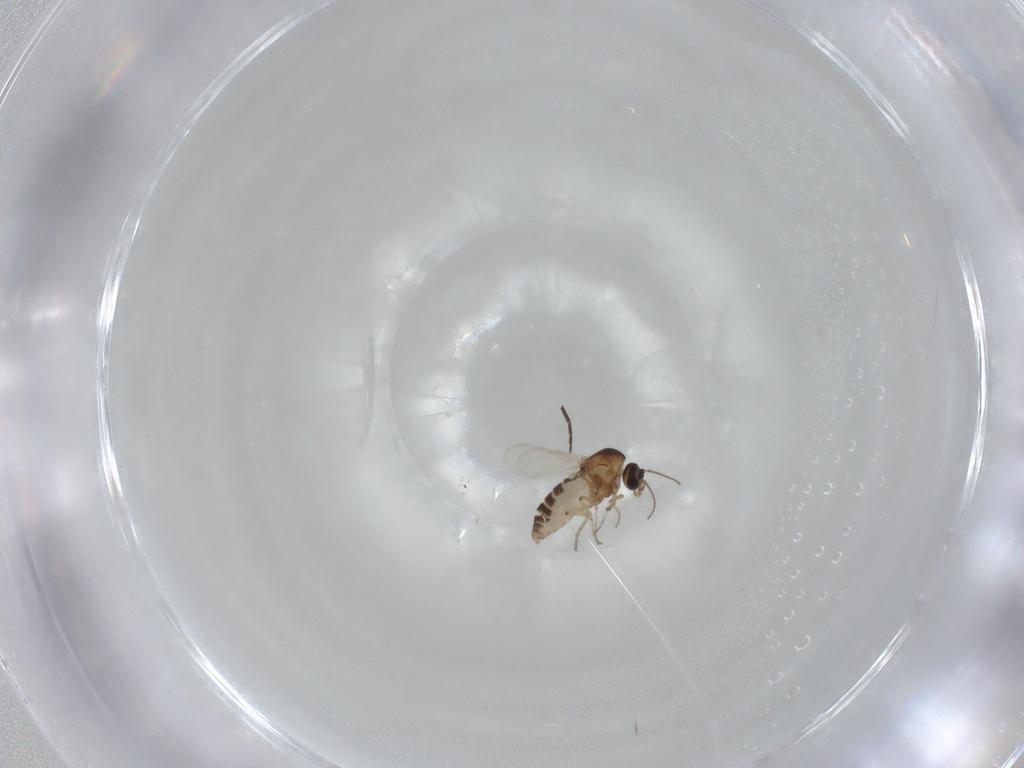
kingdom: Animalia
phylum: Arthropoda
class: Insecta
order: Diptera
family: Ceratopogonidae
